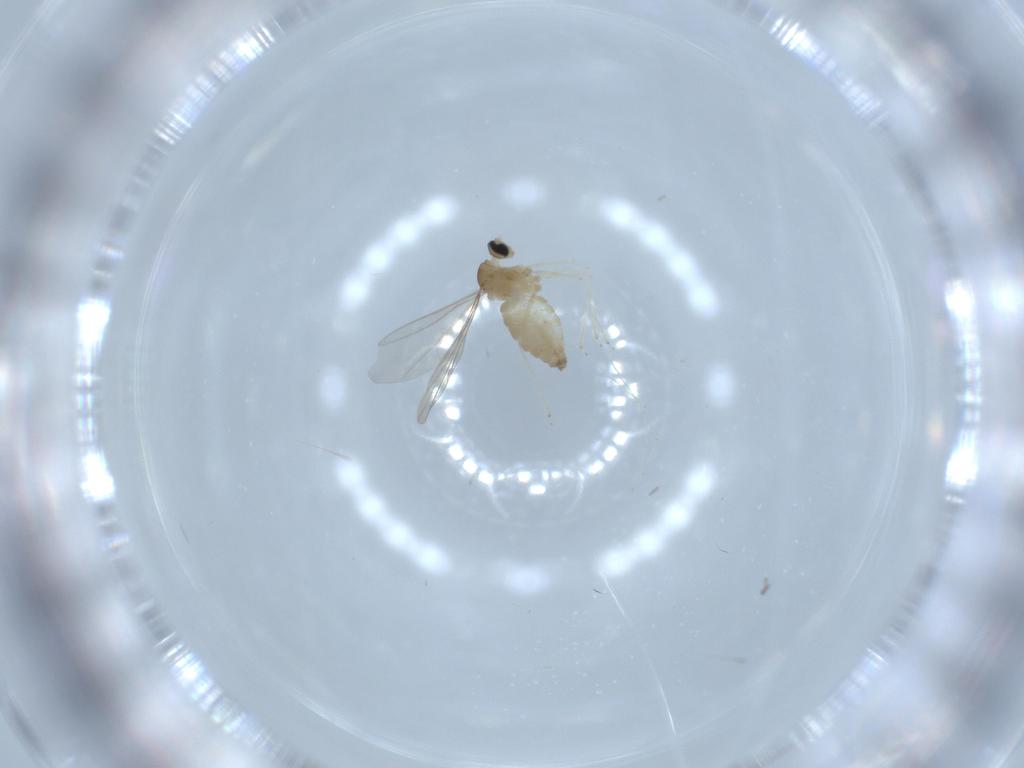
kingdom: Animalia
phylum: Arthropoda
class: Insecta
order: Diptera
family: Cecidomyiidae
